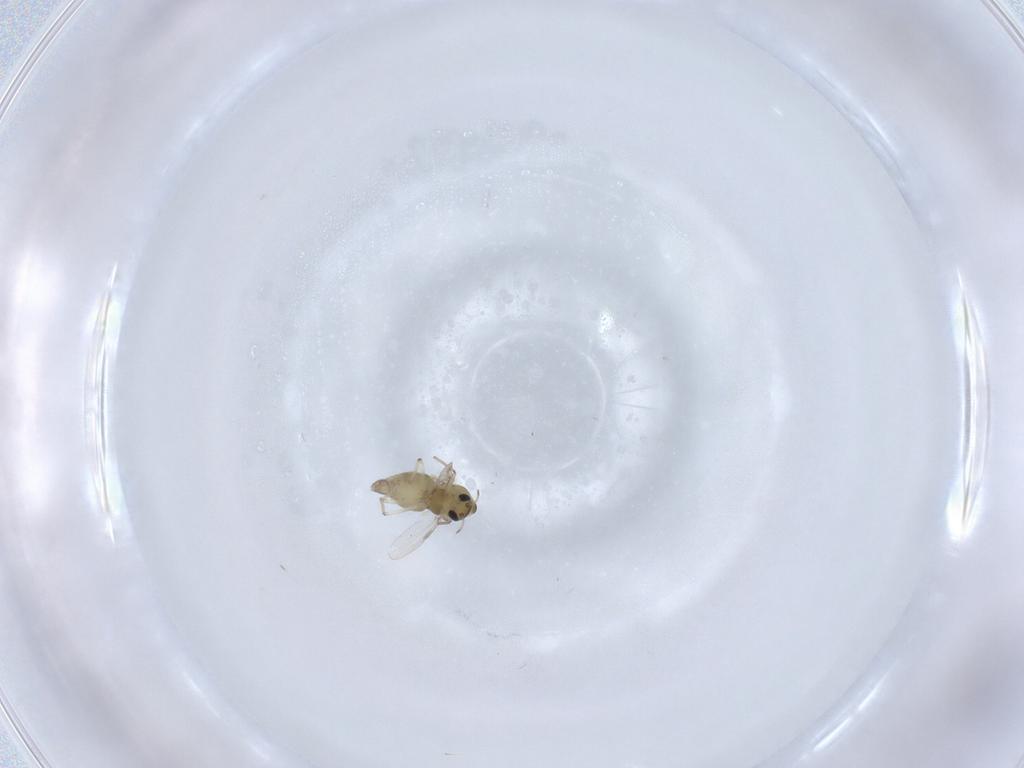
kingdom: Animalia
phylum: Arthropoda
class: Insecta
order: Diptera
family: Chironomidae
